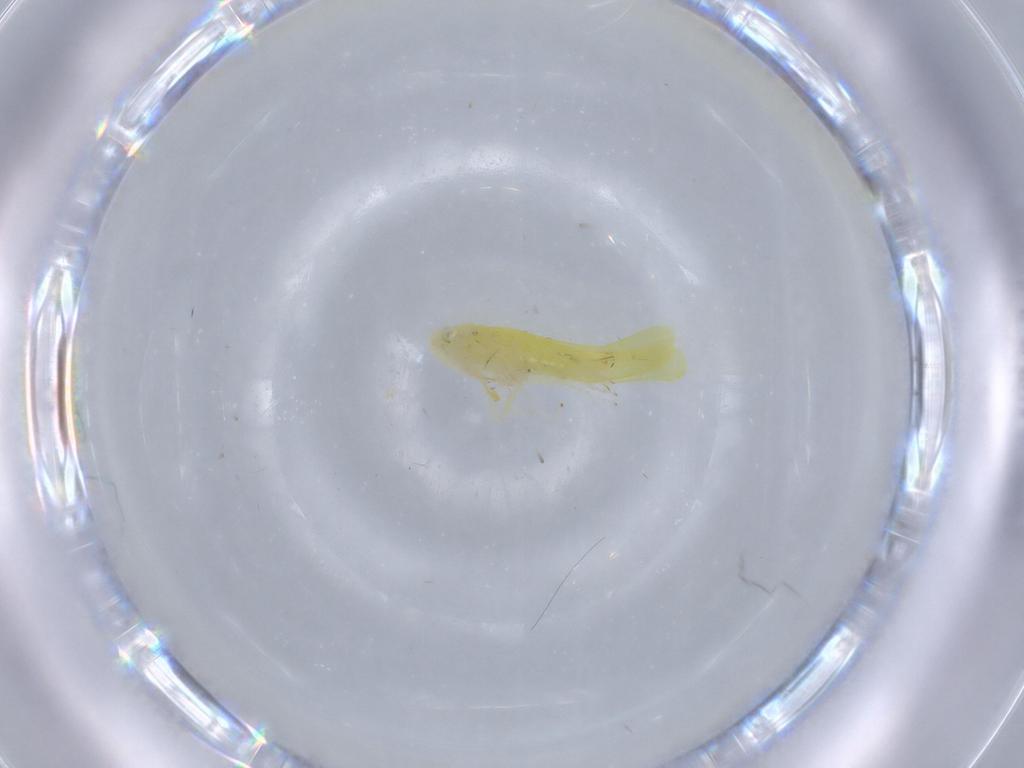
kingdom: Animalia
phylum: Arthropoda
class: Insecta
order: Hemiptera
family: Cicadellidae
